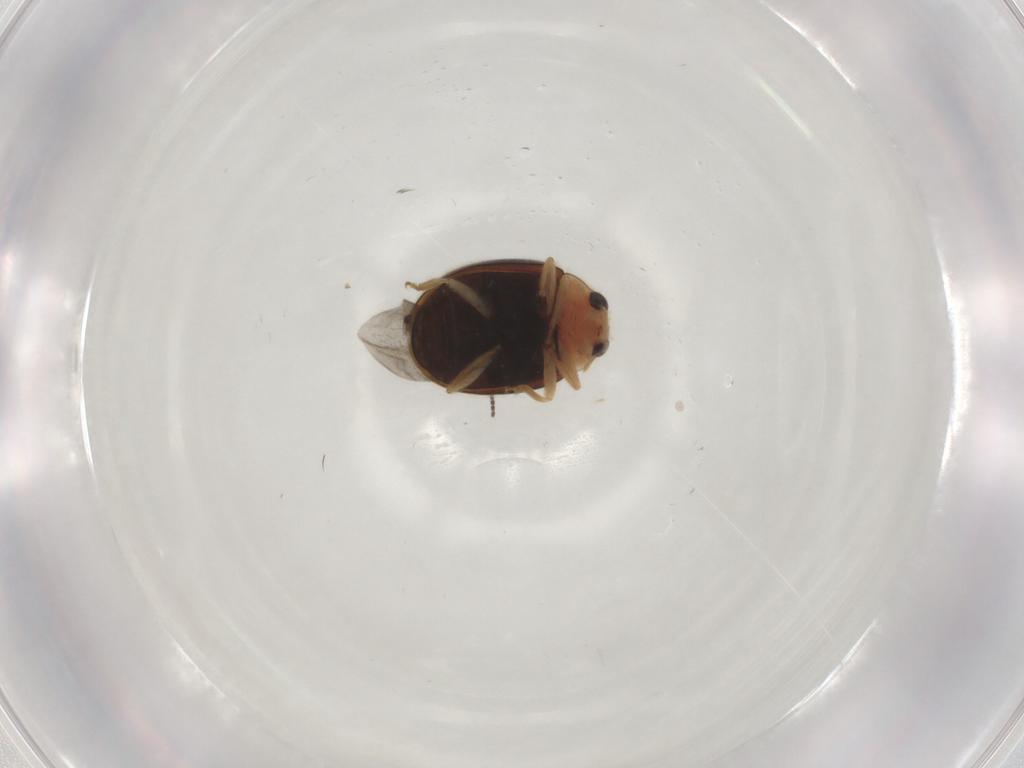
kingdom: Animalia
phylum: Arthropoda
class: Insecta
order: Coleoptera
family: Coccinellidae
